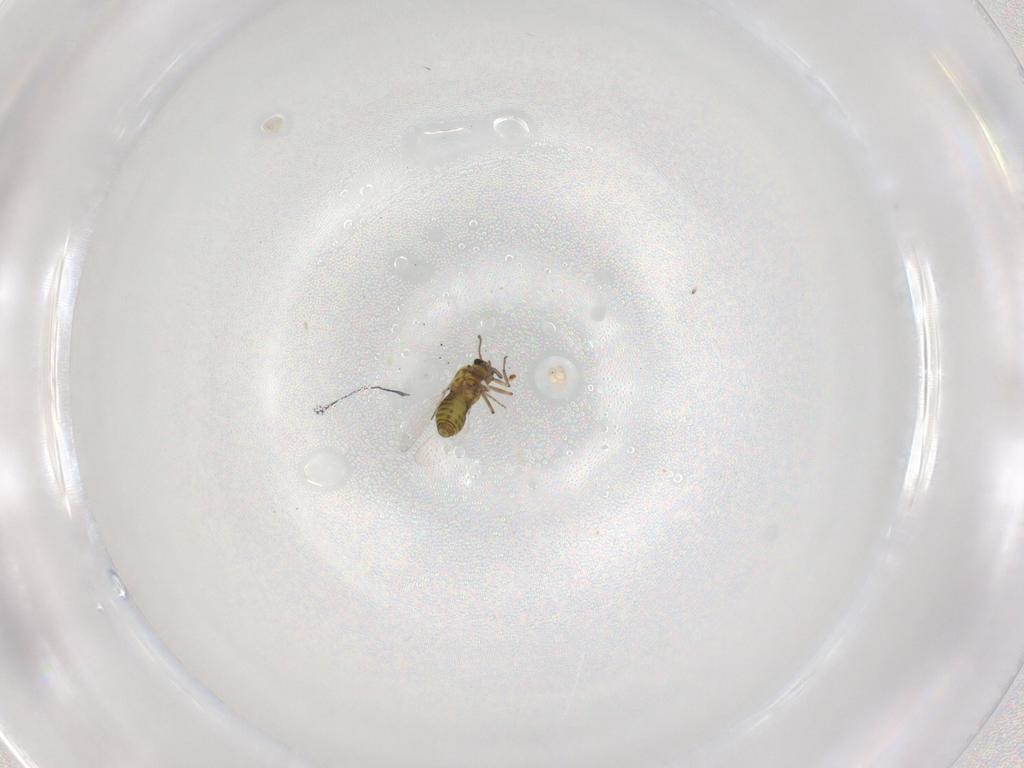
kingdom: Animalia
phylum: Arthropoda
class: Insecta
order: Diptera
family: Ceratopogonidae
